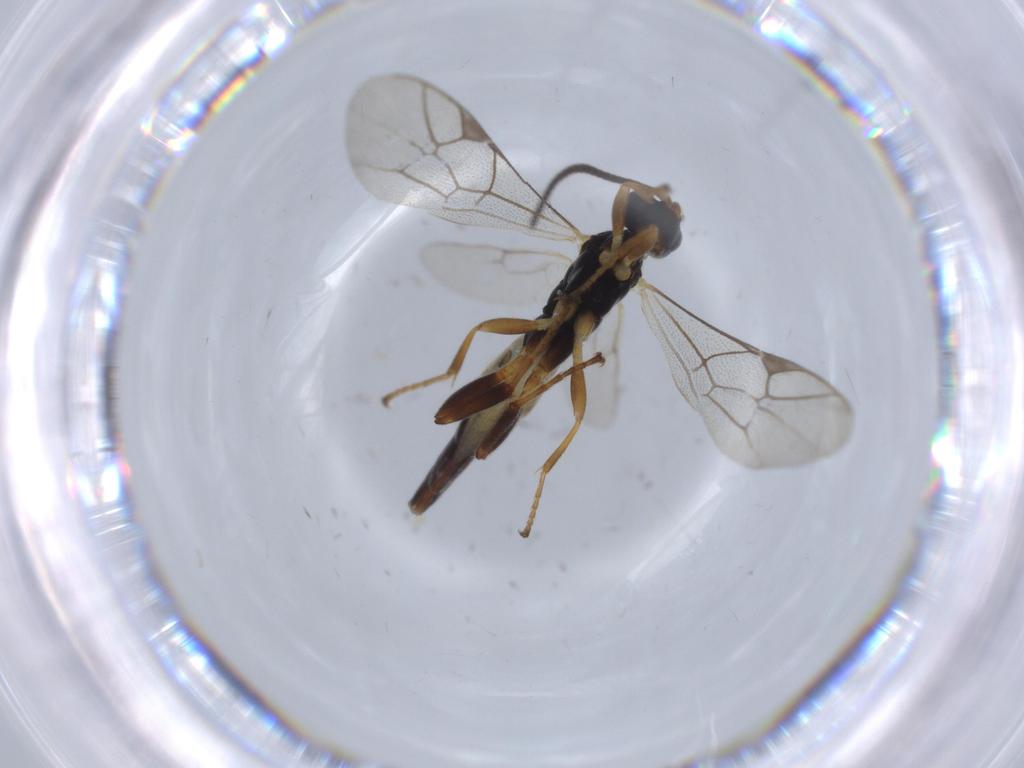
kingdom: Animalia
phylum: Arthropoda
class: Insecta
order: Hymenoptera
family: Ichneumonidae
